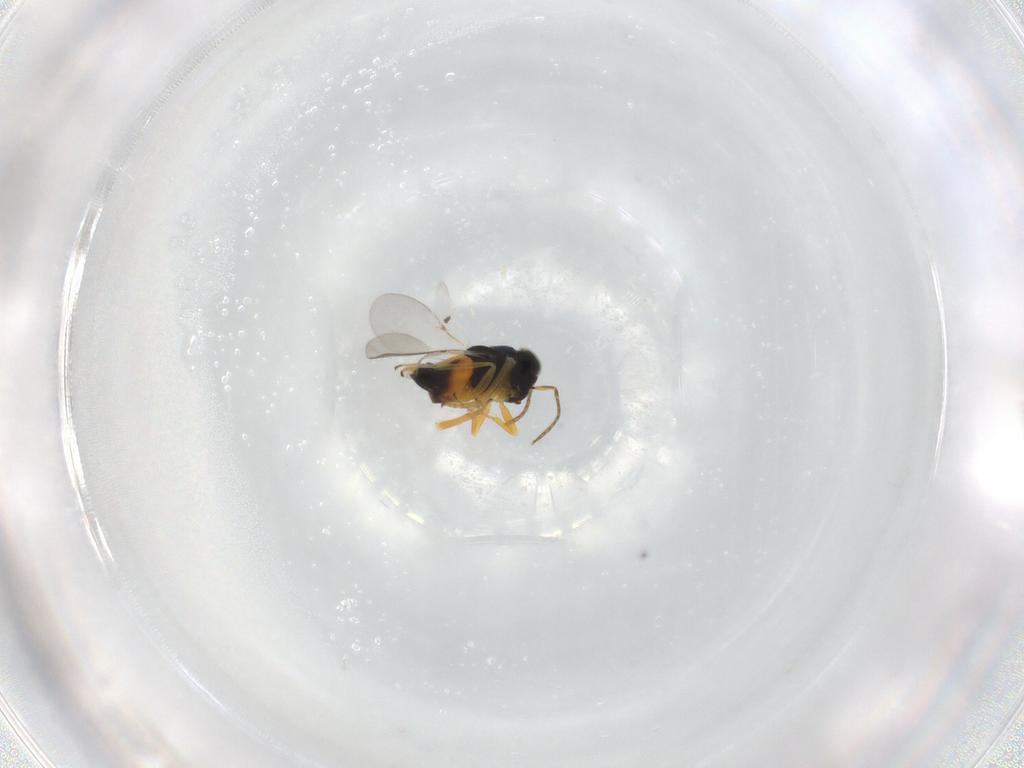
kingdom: Animalia
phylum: Arthropoda
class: Insecta
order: Hymenoptera
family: Encyrtidae
